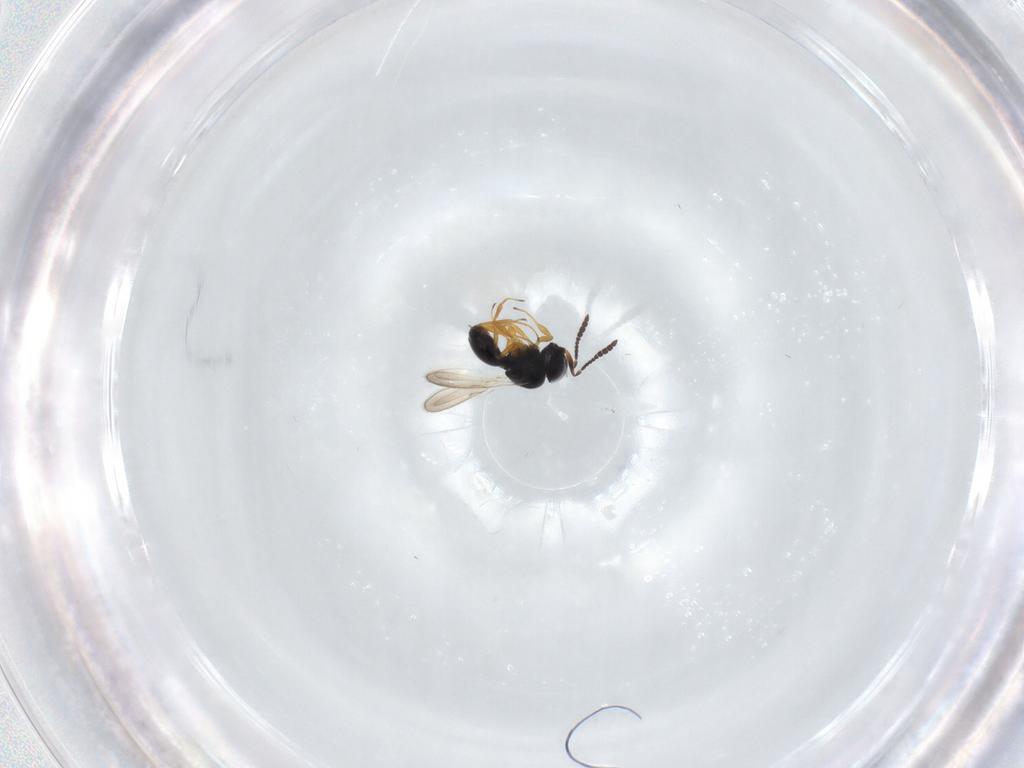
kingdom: Animalia
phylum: Arthropoda
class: Insecta
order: Hymenoptera
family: Scelionidae
